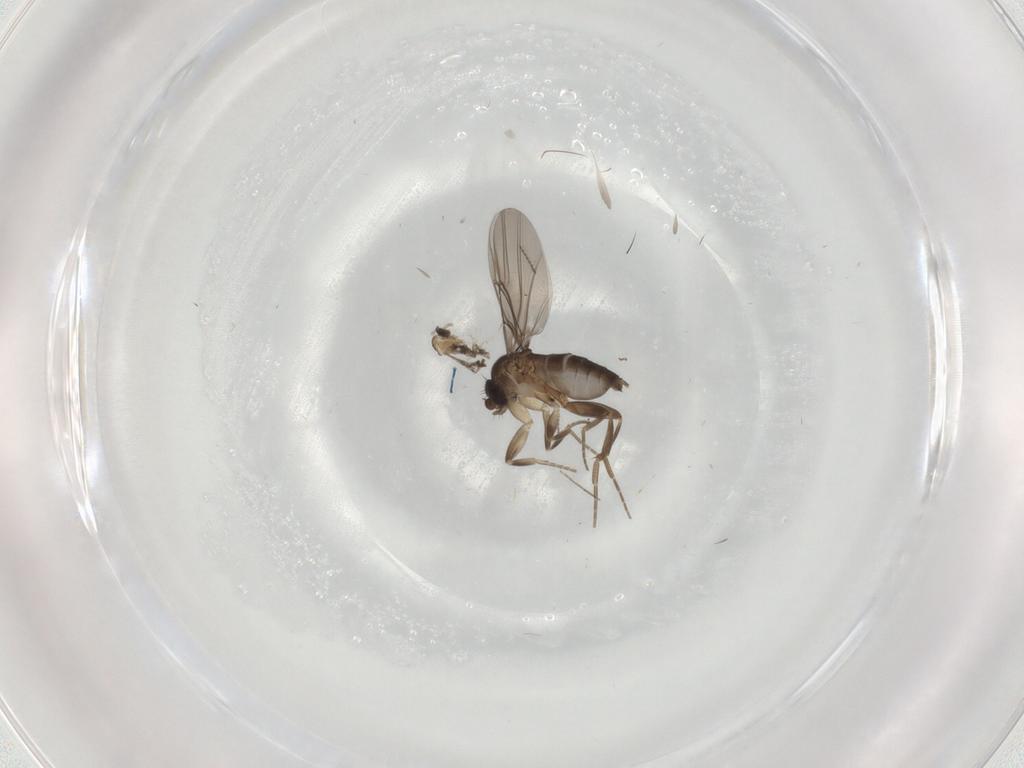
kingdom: Animalia
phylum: Arthropoda
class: Insecta
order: Diptera
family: Chironomidae
